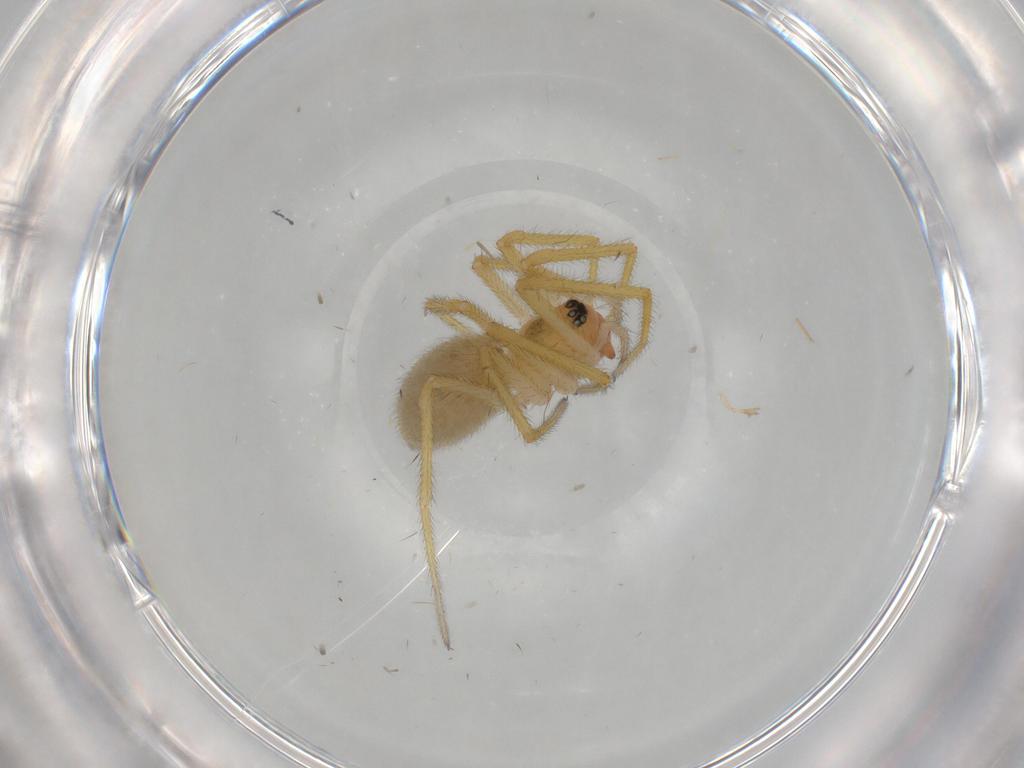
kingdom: Animalia
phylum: Arthropoda
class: Arachnida
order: Araneae
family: Linyphiidae
